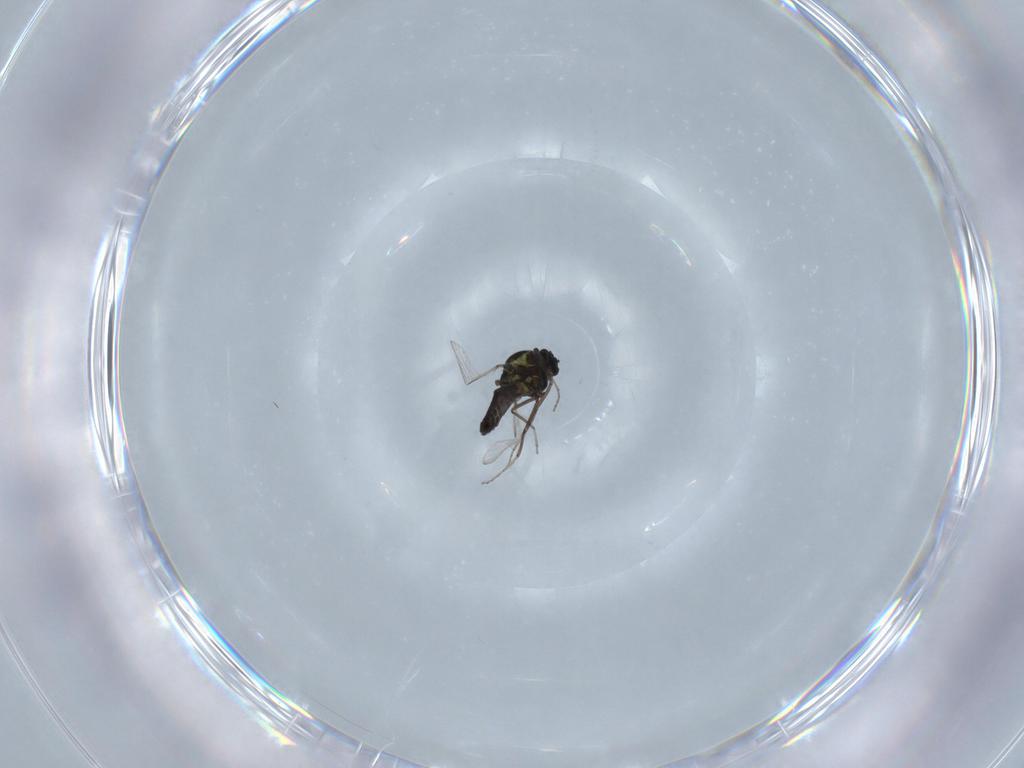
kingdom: Animalia
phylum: Arthropoda
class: Insecta
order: Diptera
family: Ceratopogonidae
